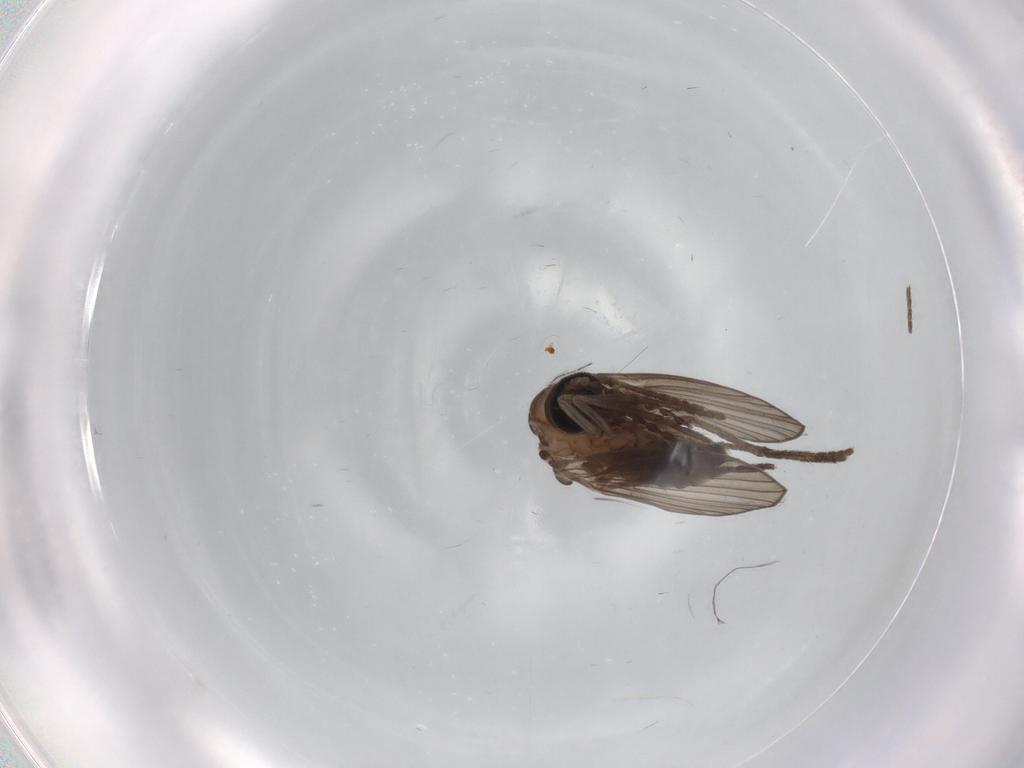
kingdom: Animalia
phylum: Arthropoda
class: Insecta
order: Diptera
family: Psychodidae
